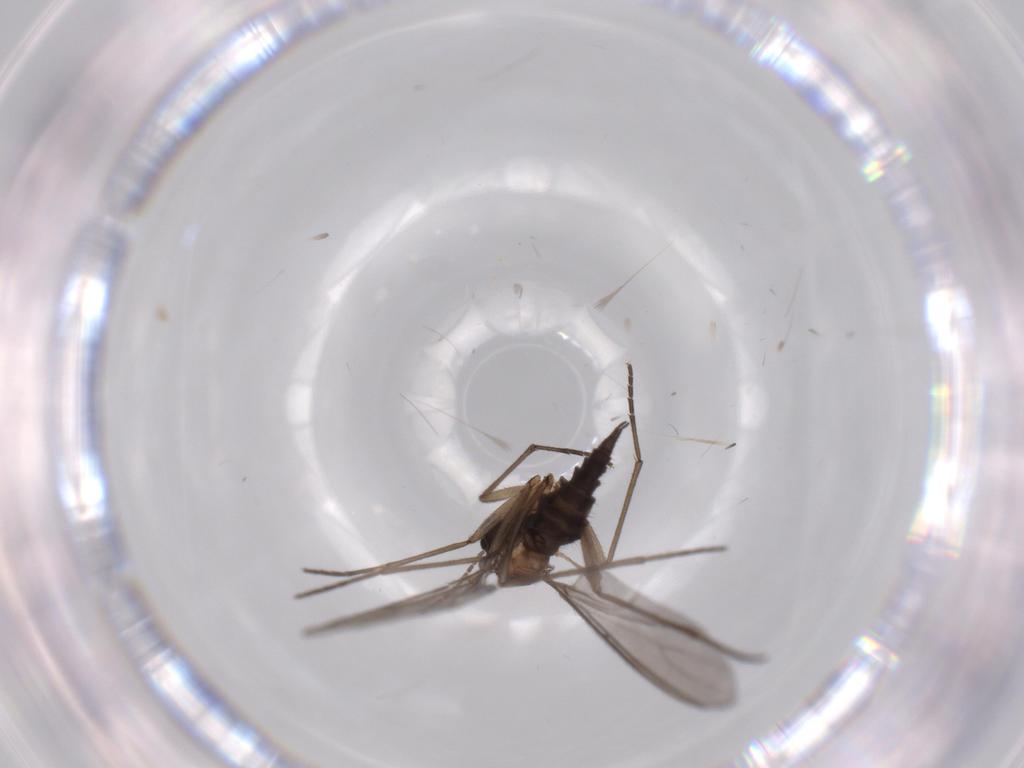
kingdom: Animalia
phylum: Arthropoda
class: Insecta
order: Diptera
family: Sciaridae
